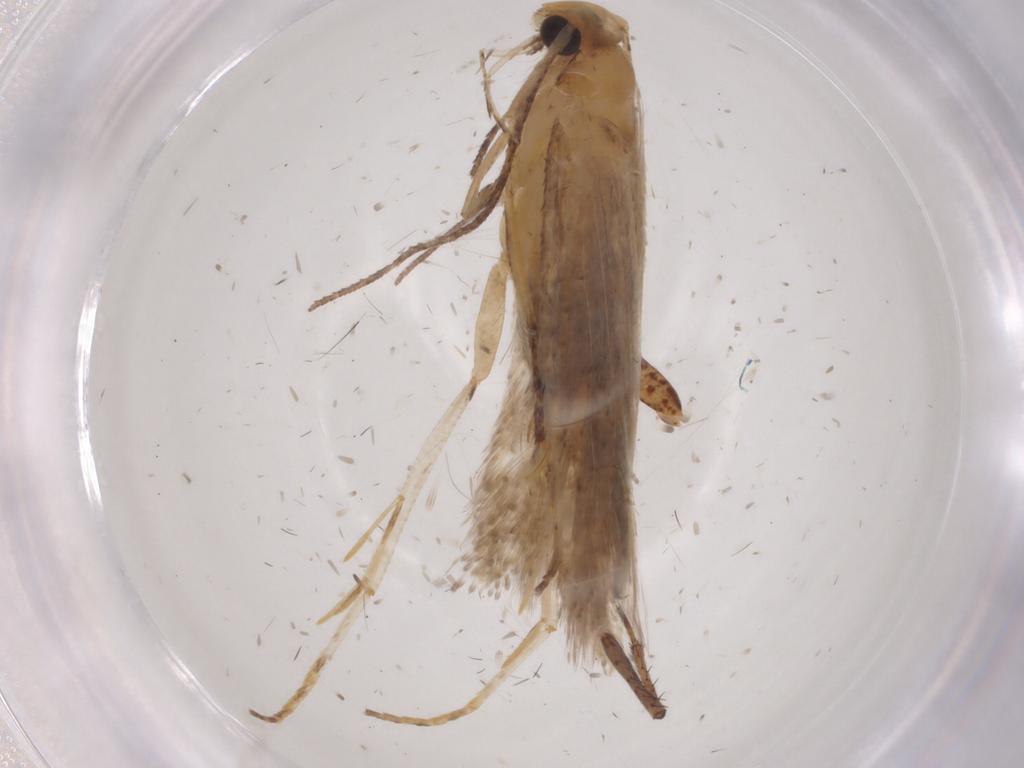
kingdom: Animalia
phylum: Arthropoda
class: Insecta
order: Lepidoptera
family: Gelechiidae
